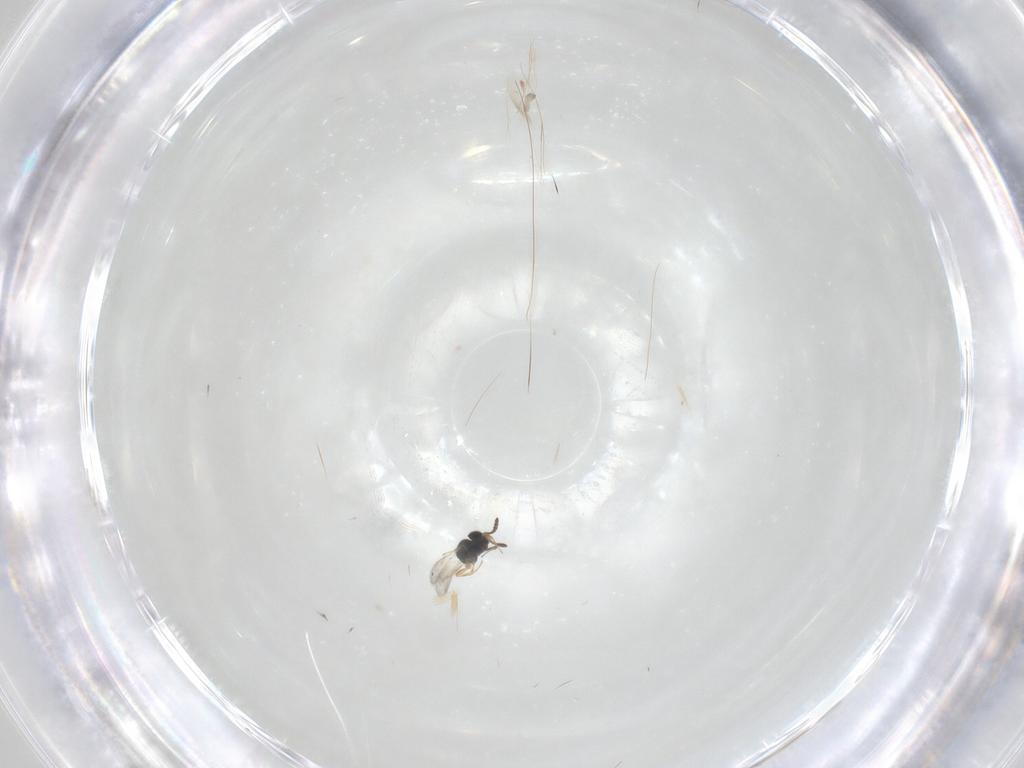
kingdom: Animalia
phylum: Arthropoda
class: Insecta
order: Hymenoptera
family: Scelionidae
